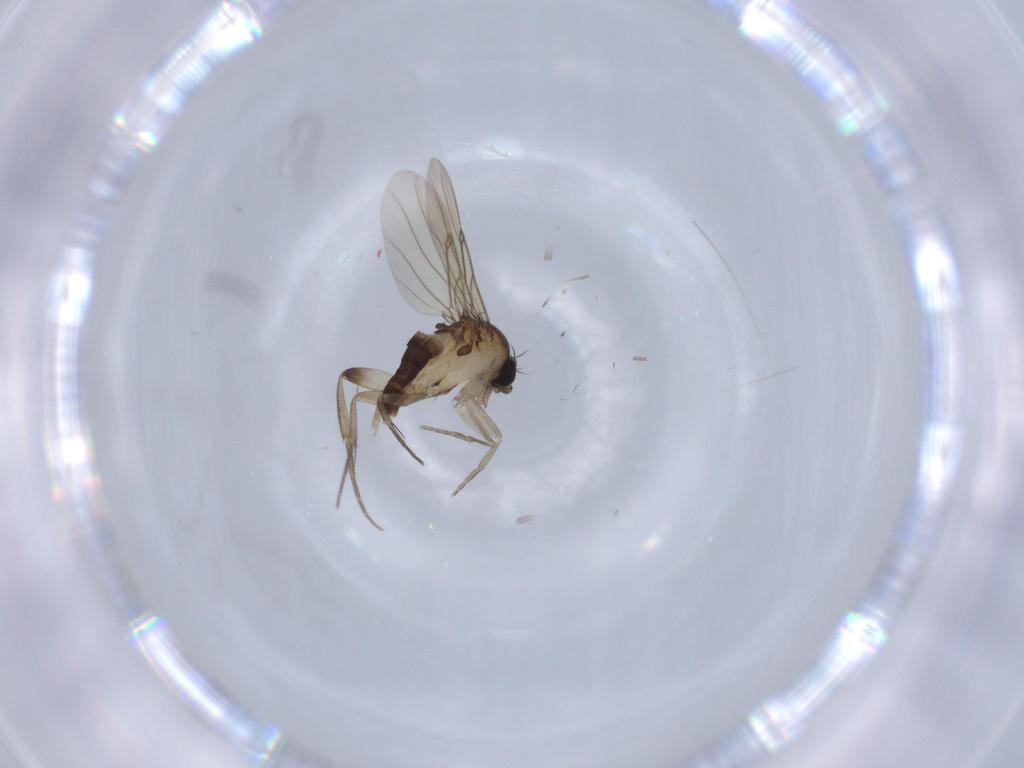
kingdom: Animalia
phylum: Arthropoda
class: Insecta
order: Diptera
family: Phoridae
